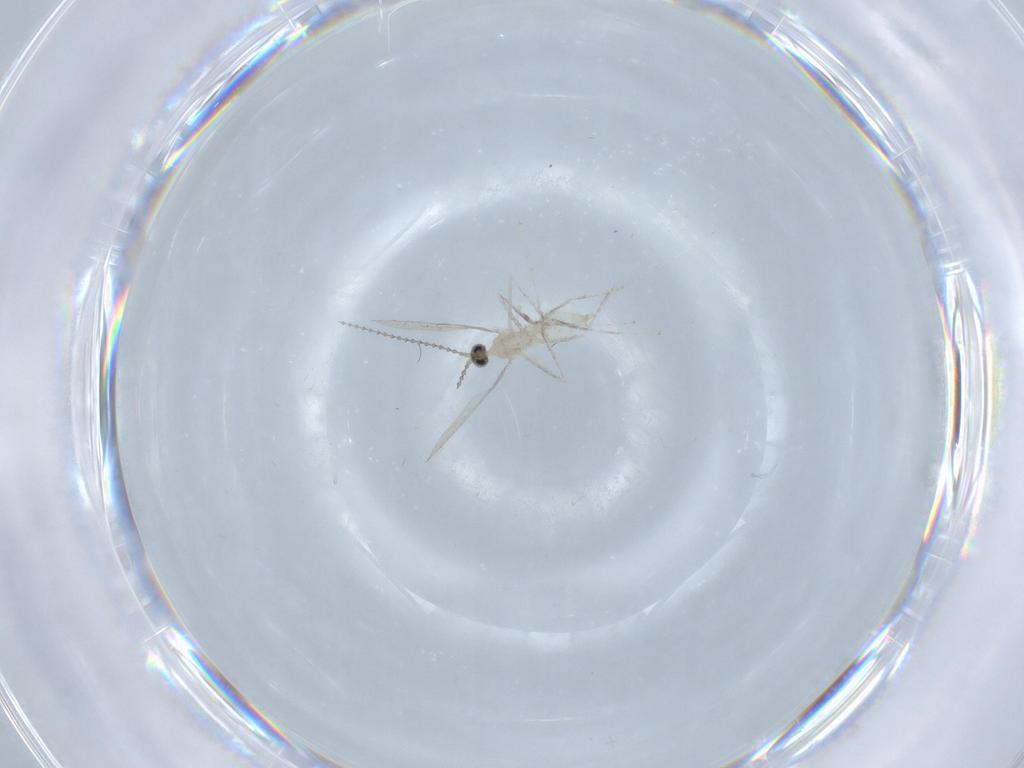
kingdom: Animalia
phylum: Arthropoda
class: Insecta
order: Diptera
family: Cecidomyiidae
